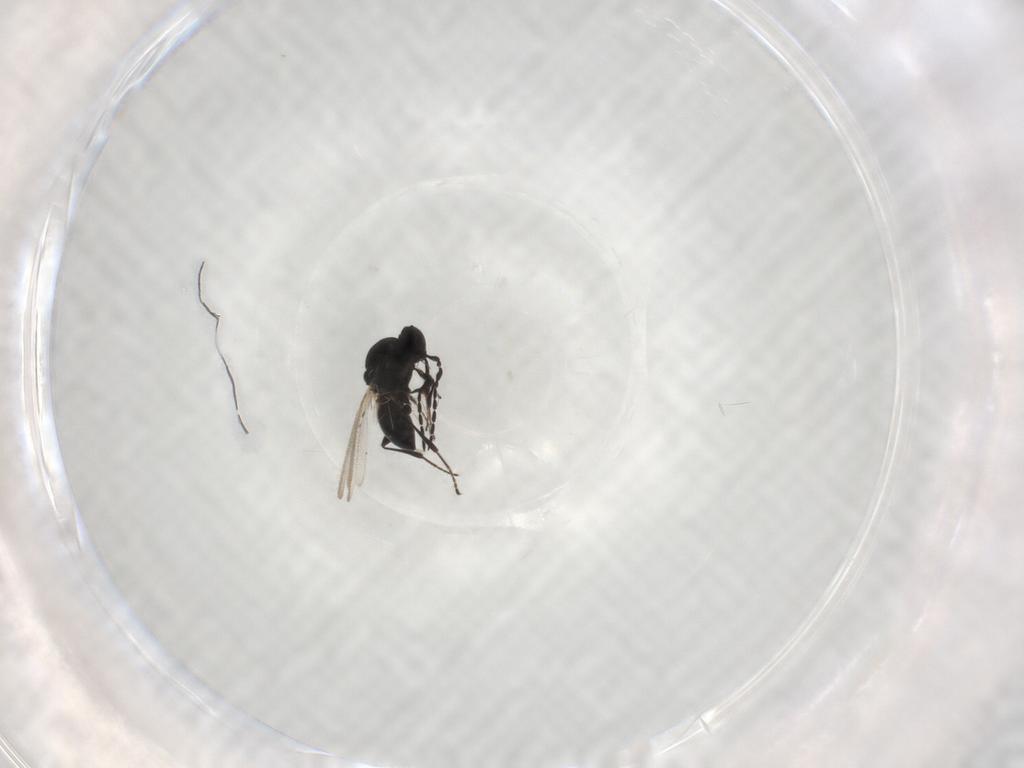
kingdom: Animalia
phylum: Arthropoda
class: Insecta
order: Hymenoptera
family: Platygastridae
